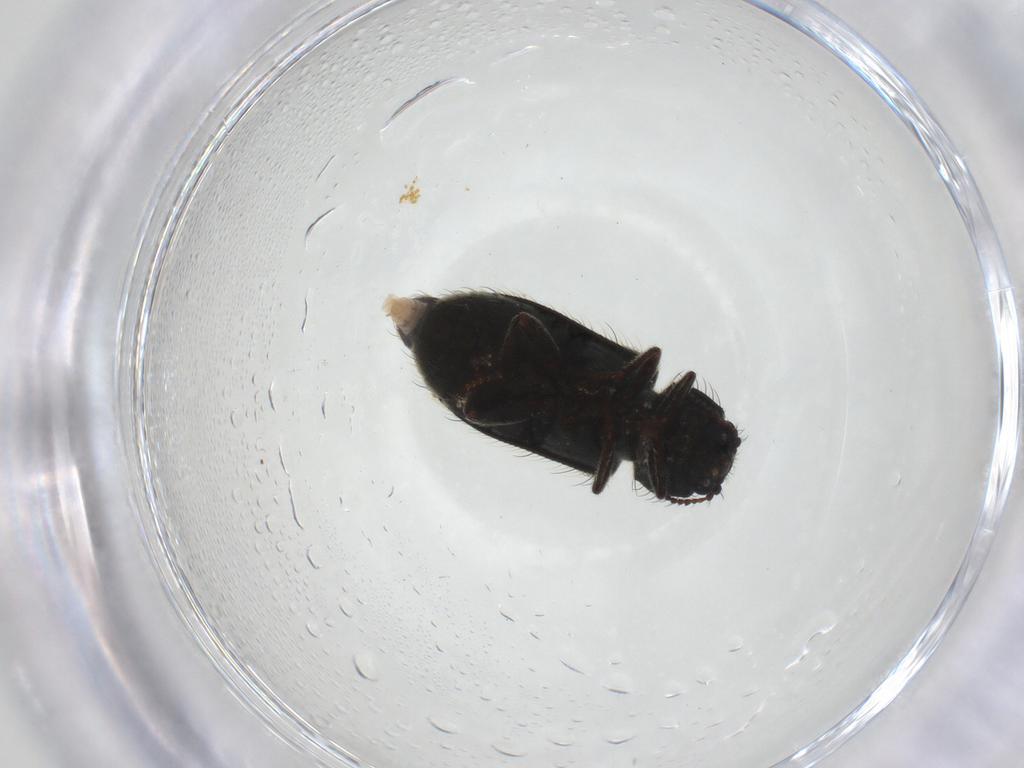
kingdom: Animalia
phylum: Arthropoda
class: Insecta
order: Coleoptera
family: Melyridae
